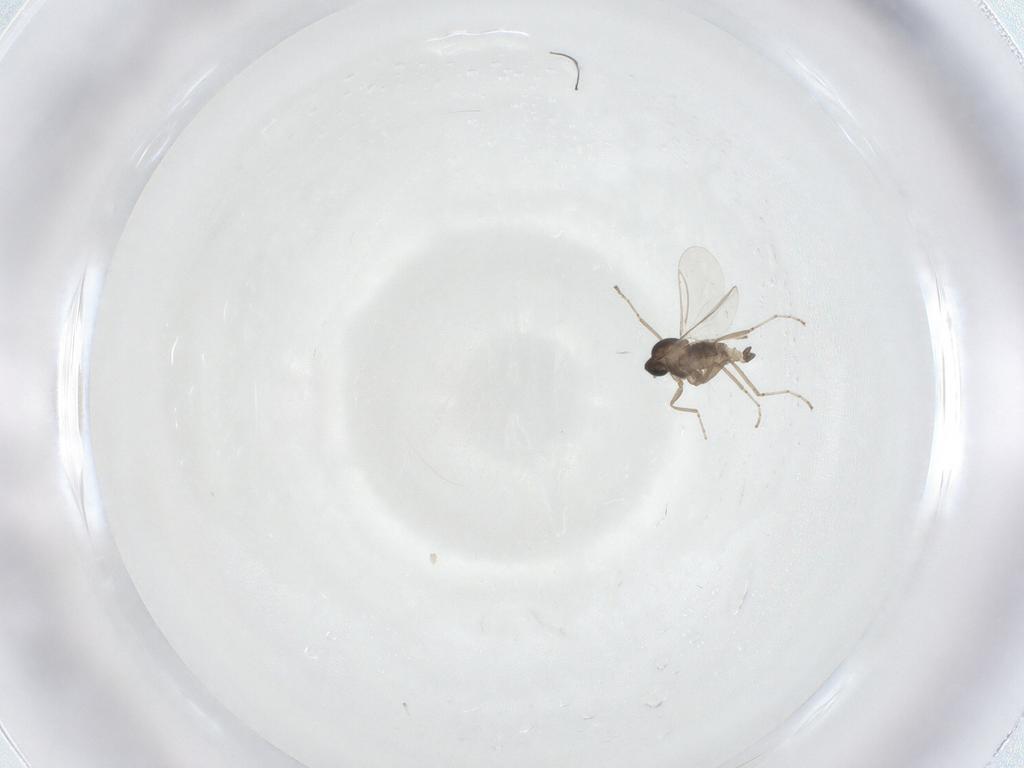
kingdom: Animalia
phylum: Arthropoda
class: Insecta
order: Diptera
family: Cecidomyiidae
